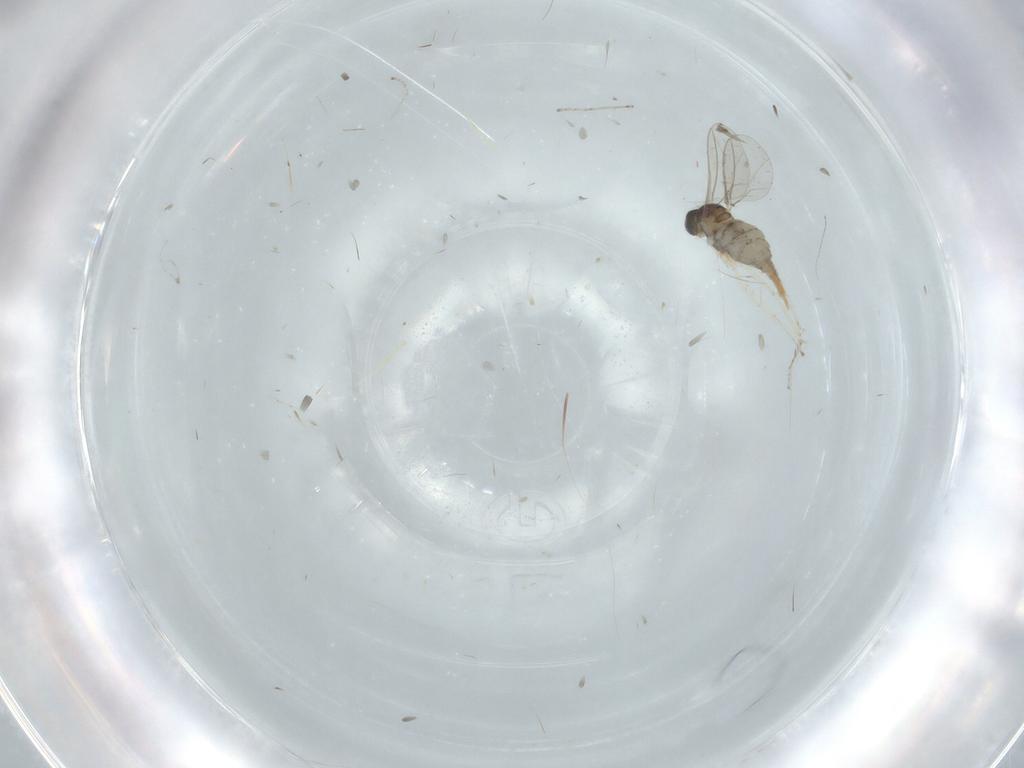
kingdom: Animalia
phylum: Arthropoda
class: Insecta
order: Diptera
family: Cecidomyiidae
